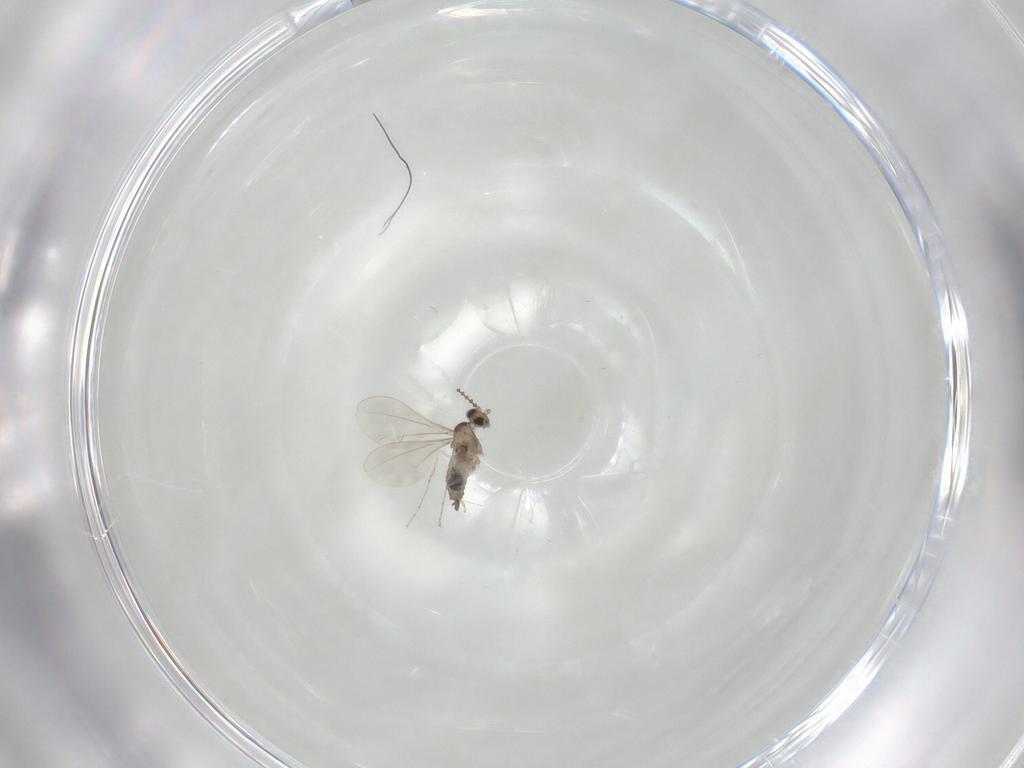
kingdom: Animalia
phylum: Arthropoda
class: Insecta
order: Diptera
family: Cecidomyiidae
